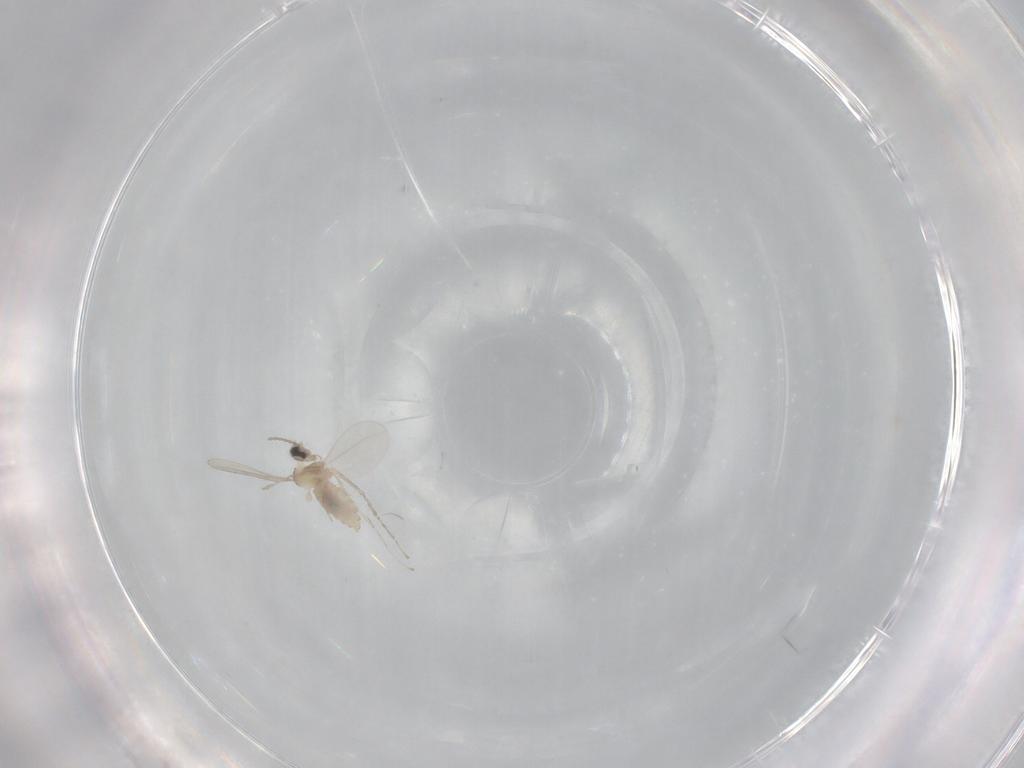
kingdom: Animalia
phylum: Arthropoda
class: Insecta
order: Diptera
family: Cecidomyiidae
